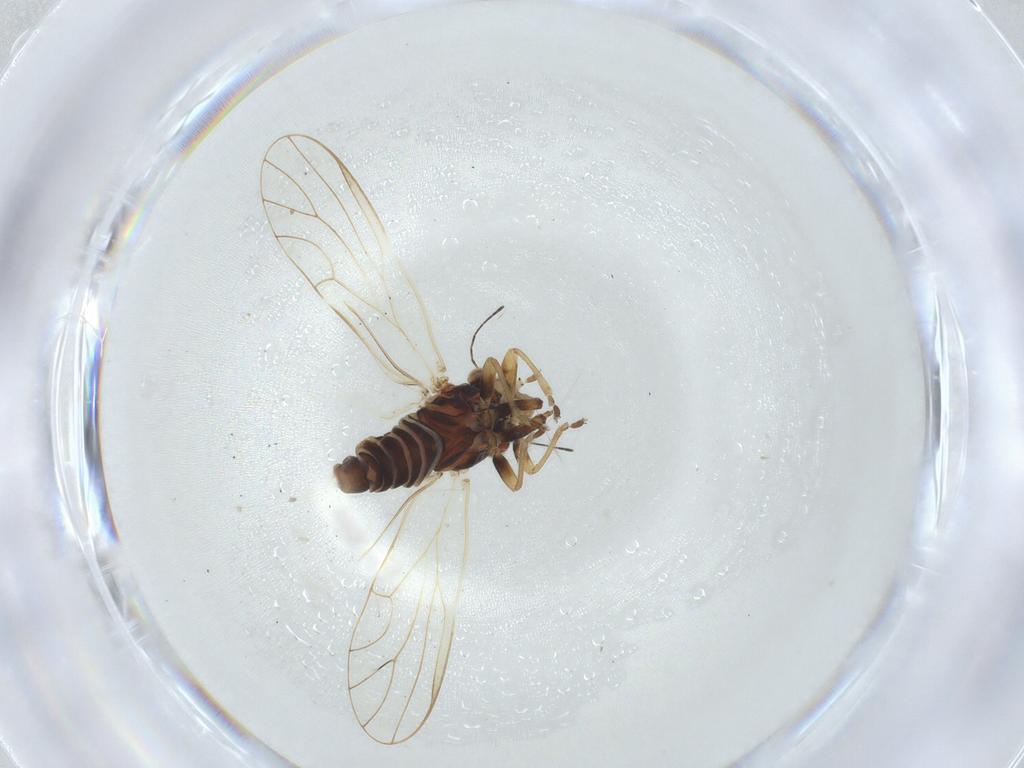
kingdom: Animalia
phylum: Arthropoda
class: Insecta
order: Hemiptera
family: Psyllidae
